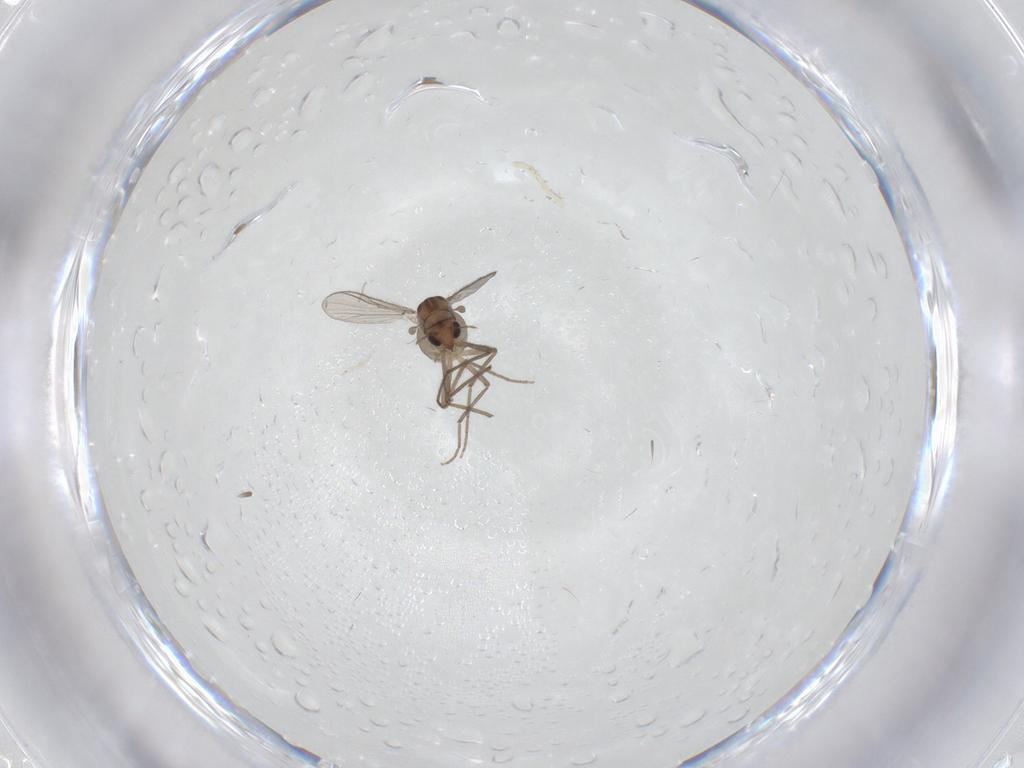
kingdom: Animalia
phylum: Arthropoda
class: Insecta
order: Diptera
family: Chironomidae
